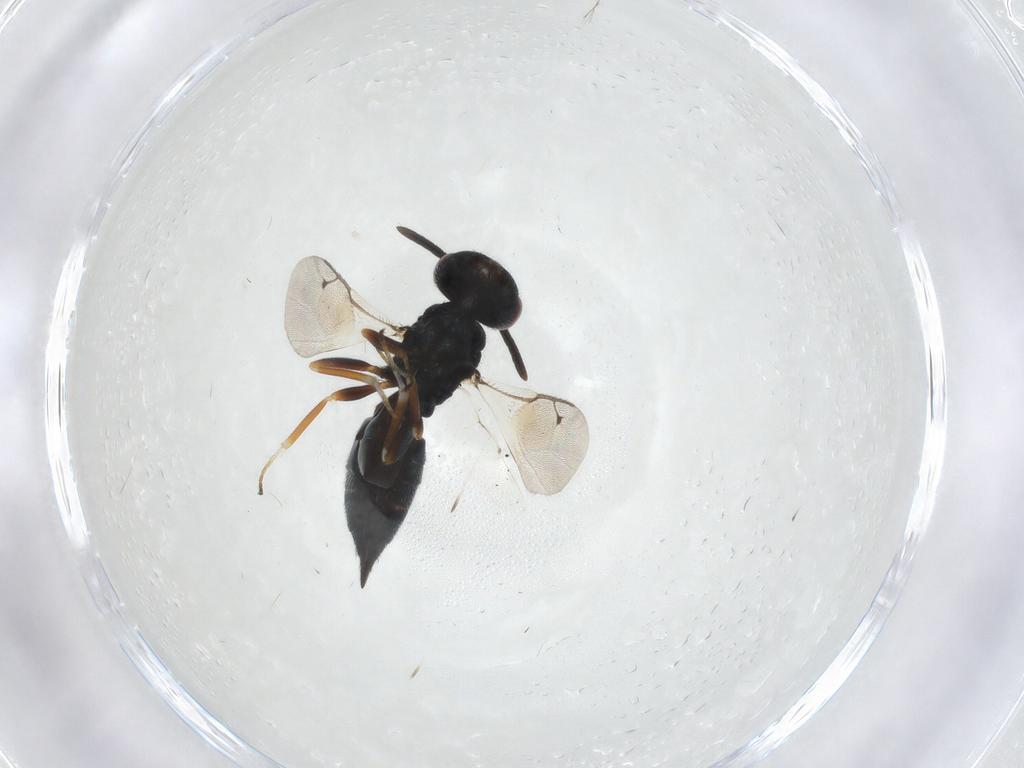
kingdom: Animalia
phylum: Arthropoda
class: Insecta
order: Hymenoptera
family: Pteromalidae
